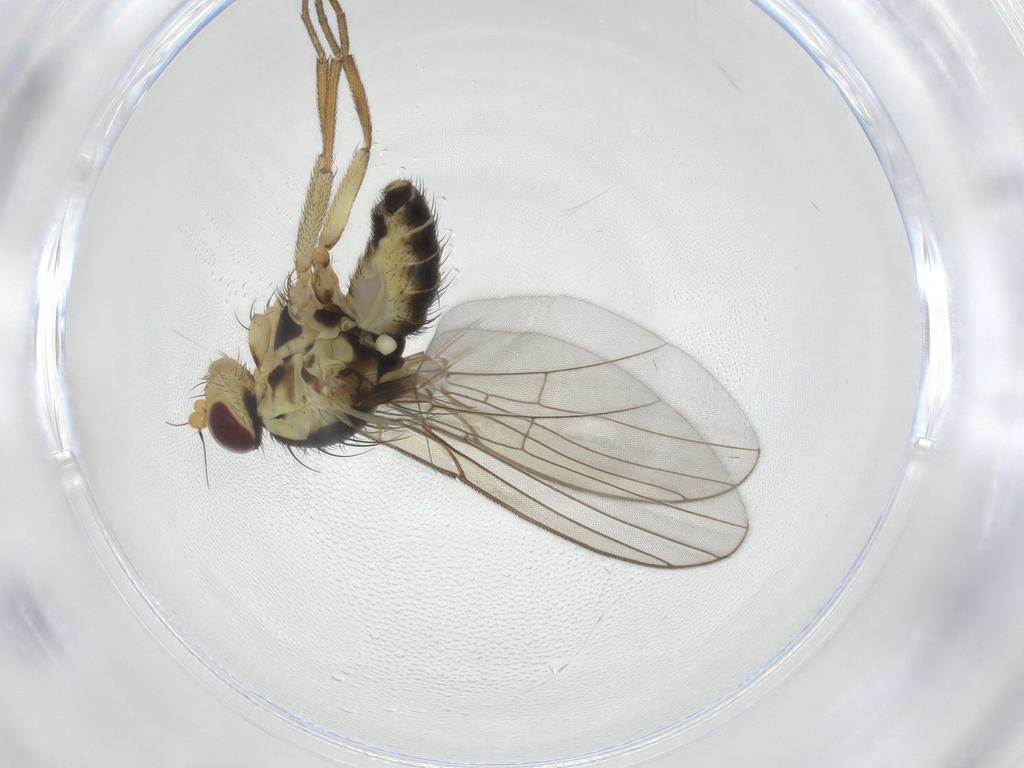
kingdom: Animalia
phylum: Arthropoda
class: Insecta
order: Diptera
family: Agromyzidae
